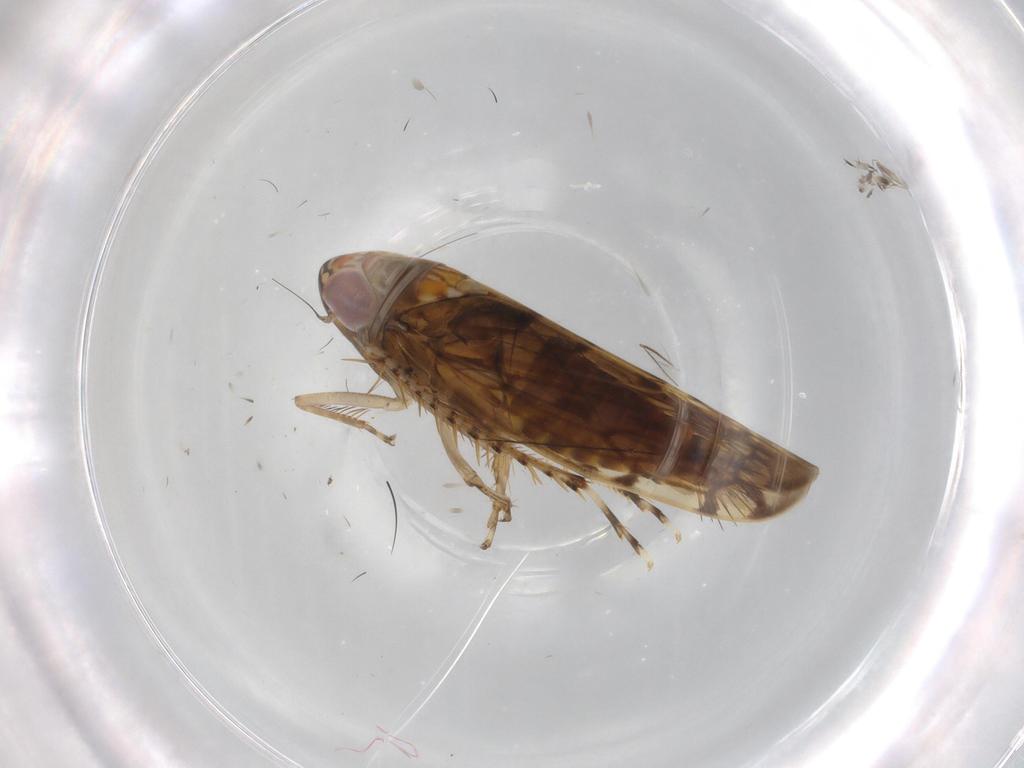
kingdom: Animalia
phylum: Arthropoda
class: Insecta
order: Hemiptera
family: Cicadellidae
